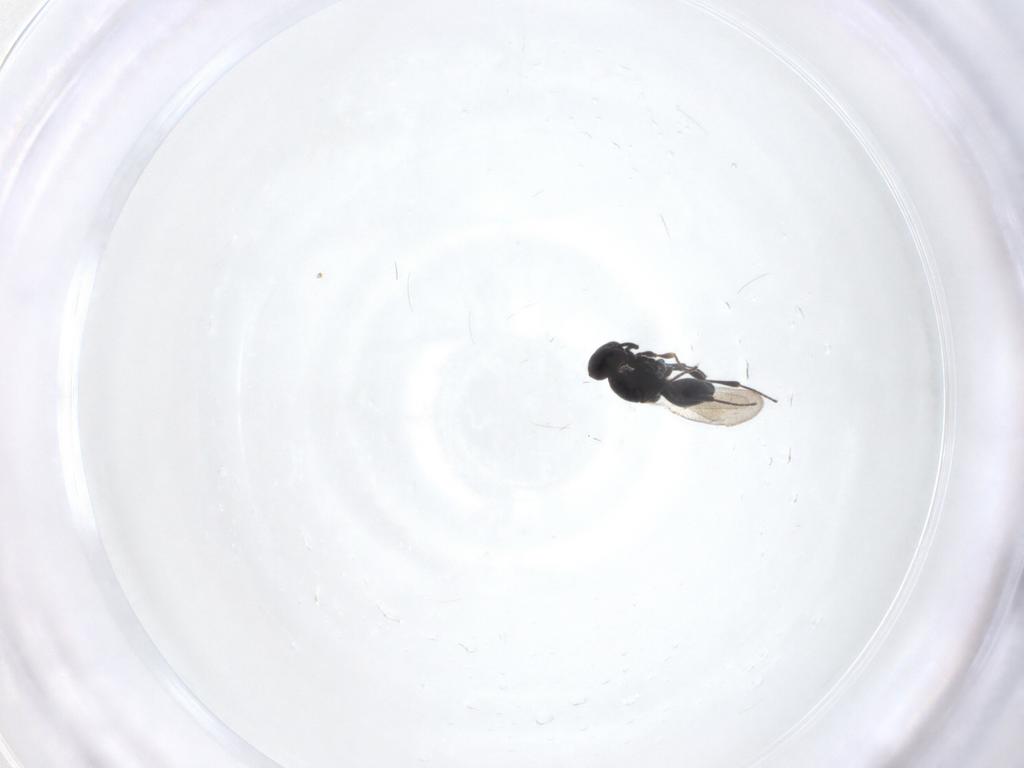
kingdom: Animalia
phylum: Arthropoda
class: Insecta
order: Hymenoptera
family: Platygastridae
